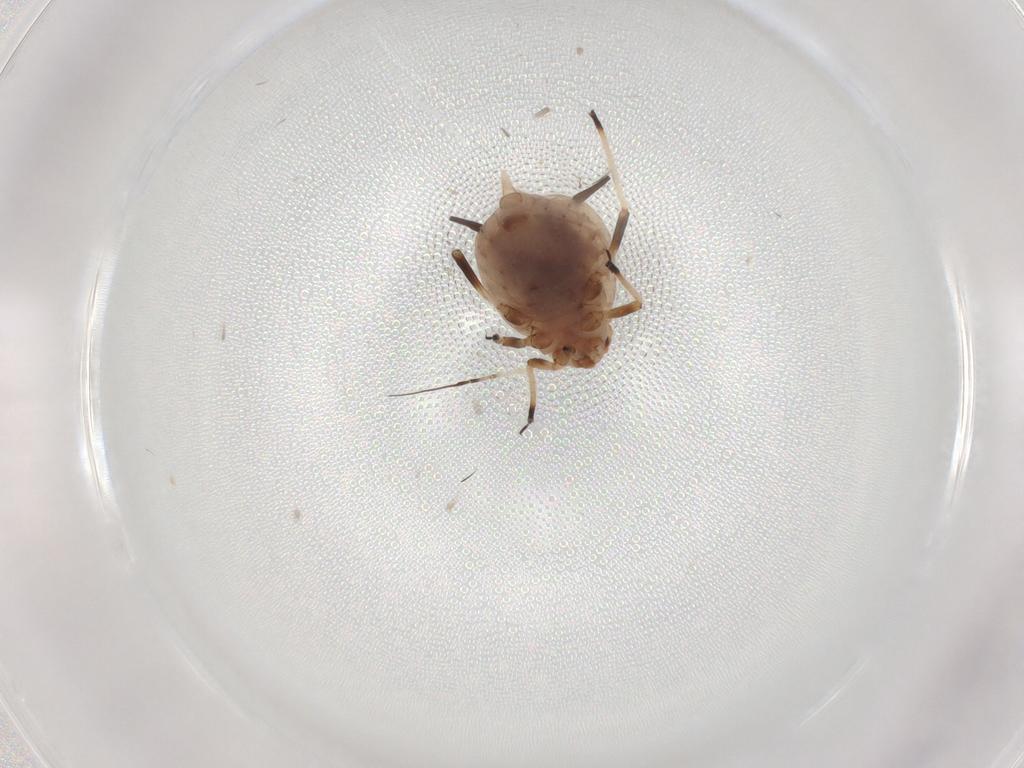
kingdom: Animalia
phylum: Arthropoda
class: Insecta
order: Hemiptera
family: Aphididae
